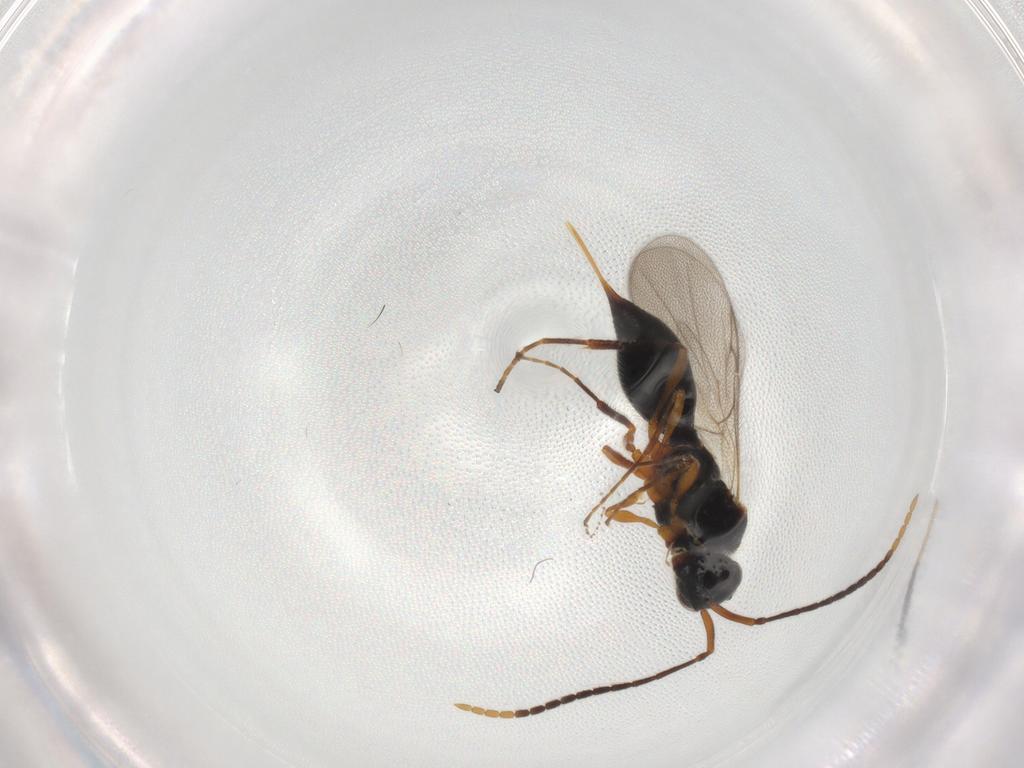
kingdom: Animalia
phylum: Arthropoda
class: Insecta
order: Hymenoptera
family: Diapriidae
